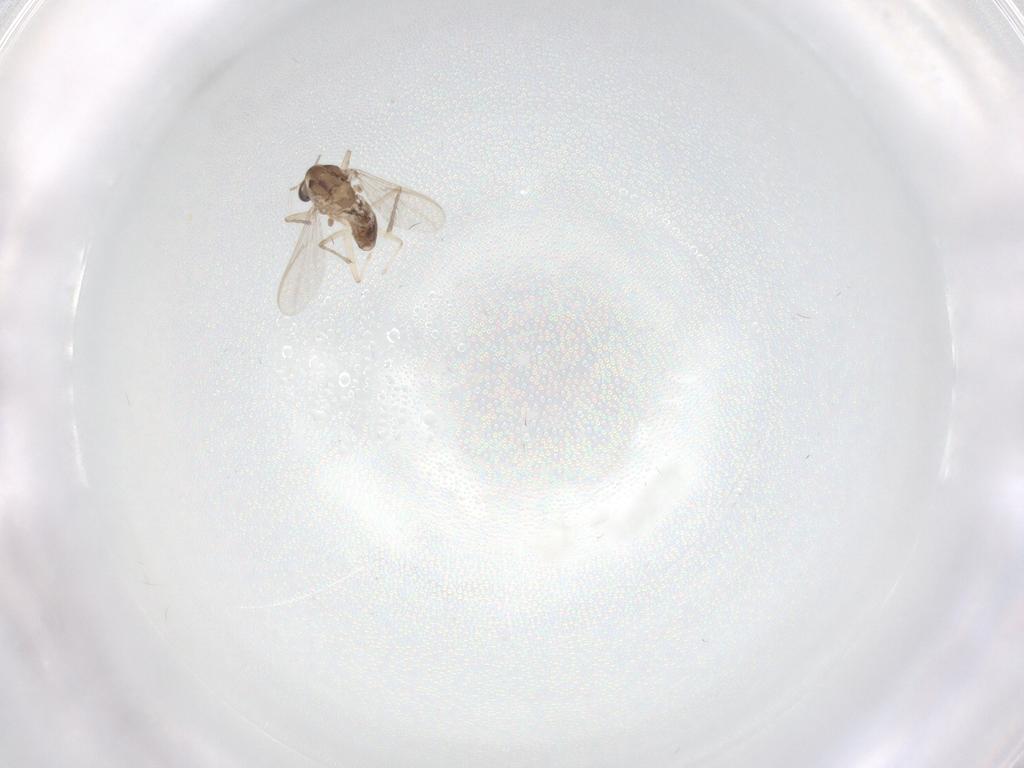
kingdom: Animalia
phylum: Arthropoda
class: Insecta
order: Diptera
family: Chironomidae
